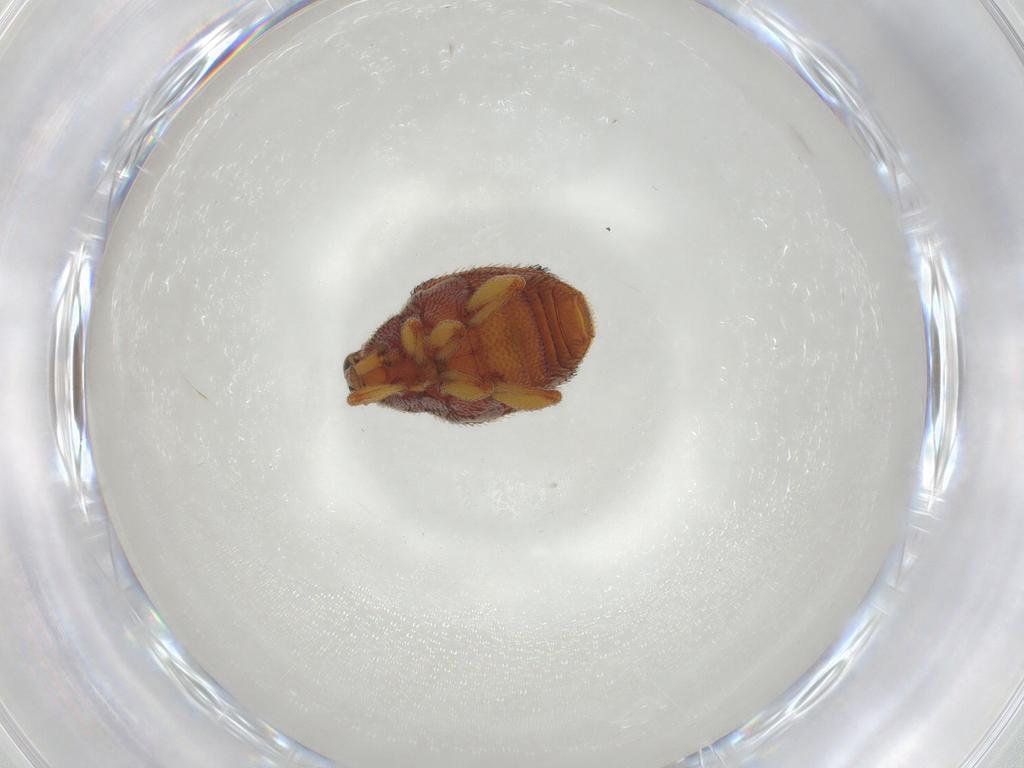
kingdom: Animalia
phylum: Arthropoda
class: Insecta
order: Coleoptera
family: Curculionidae
